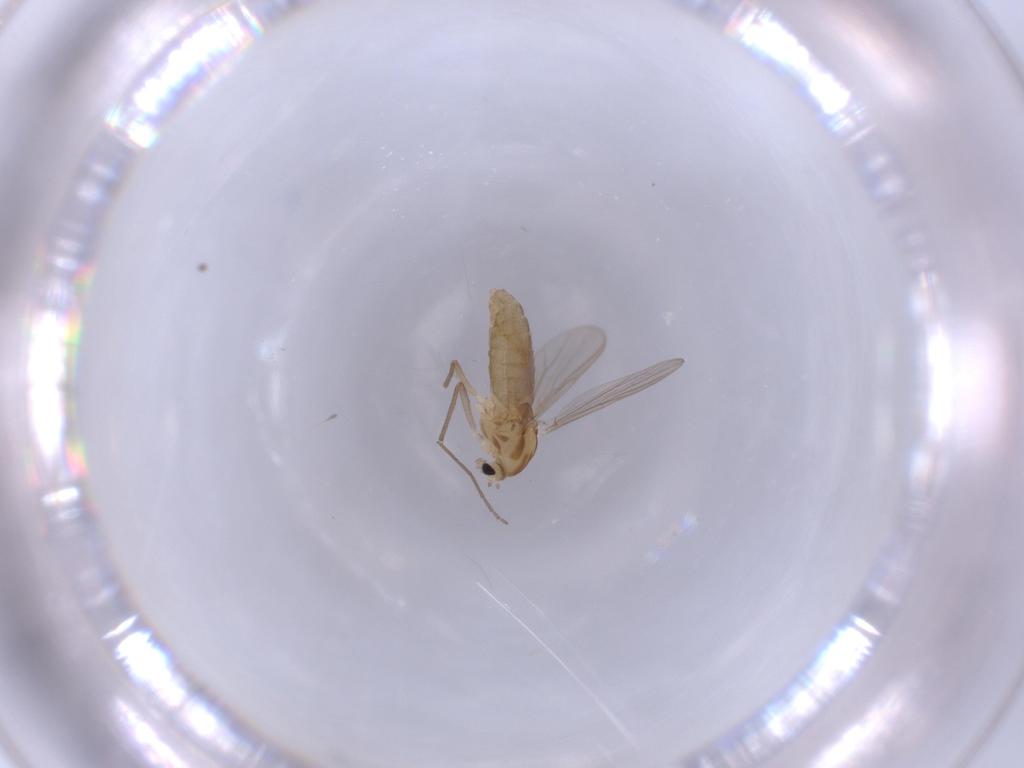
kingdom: Animalia
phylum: Arthropoda
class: Insecta
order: Diptera
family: Chironomidae
